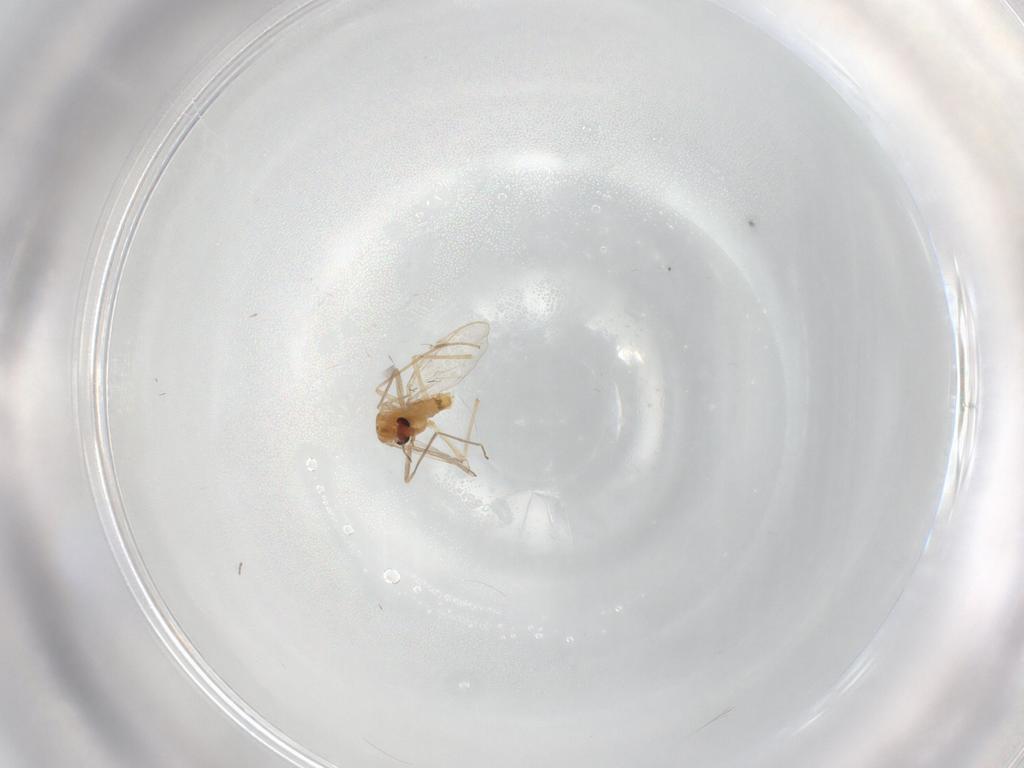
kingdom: Animalia
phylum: Arthropoda
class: Insecta
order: Diptera
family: Chironomidae
